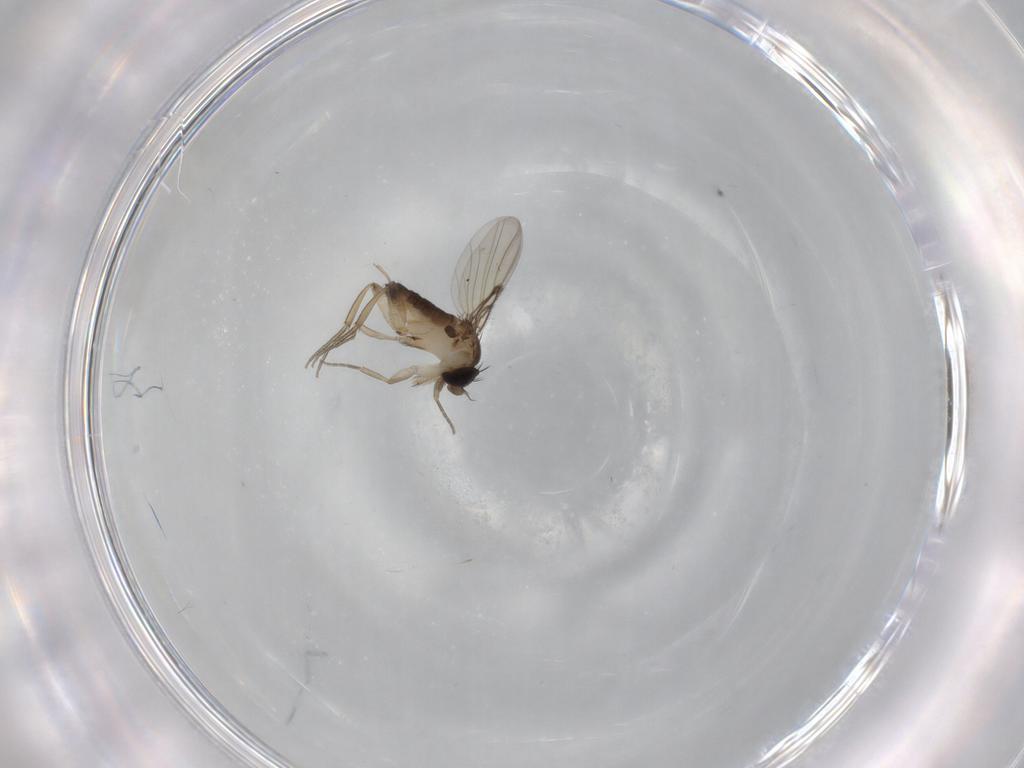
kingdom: Animalia
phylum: Arthropoda
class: Insecta
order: Diptera
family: Phoridae
